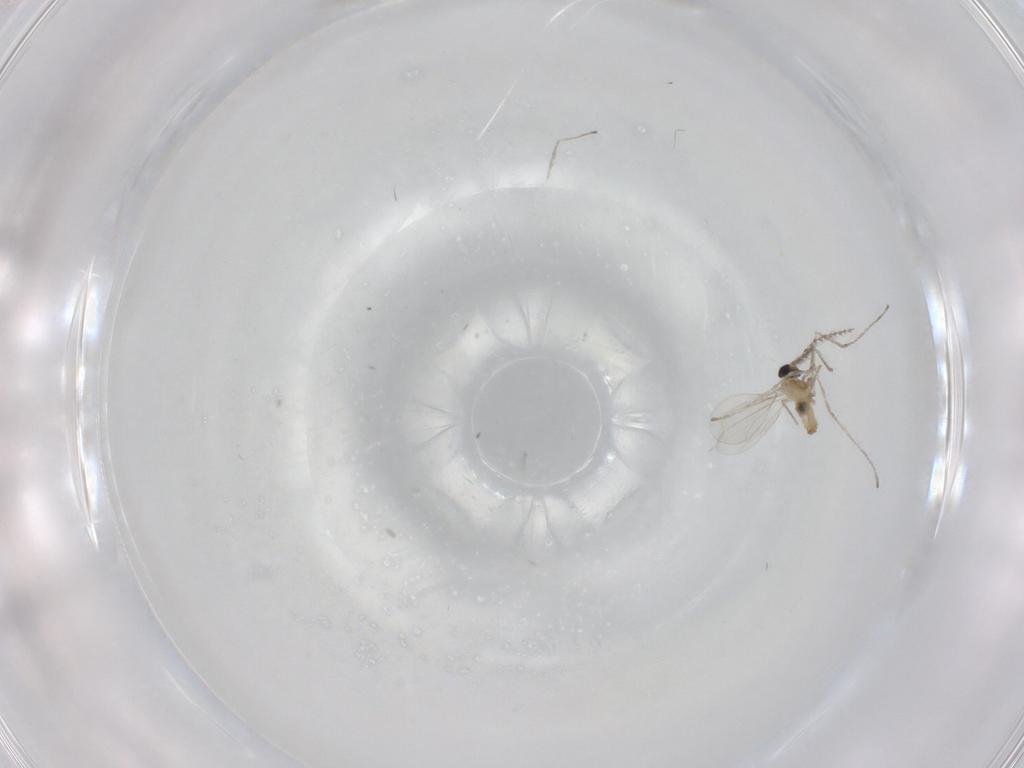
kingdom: Animalia
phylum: Arthropoda
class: Insecta
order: Diptera
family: Cecidomyiidae
